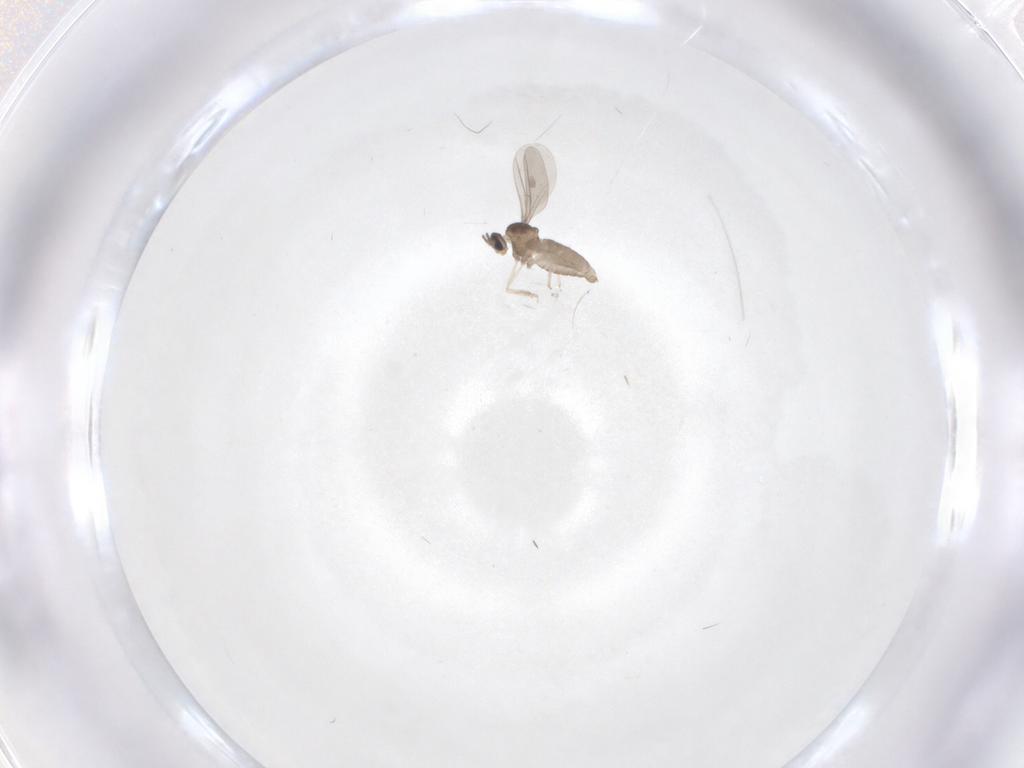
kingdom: Animalia
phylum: Arthropoda
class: Insecta
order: Diptera
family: Cecidomyiidae
